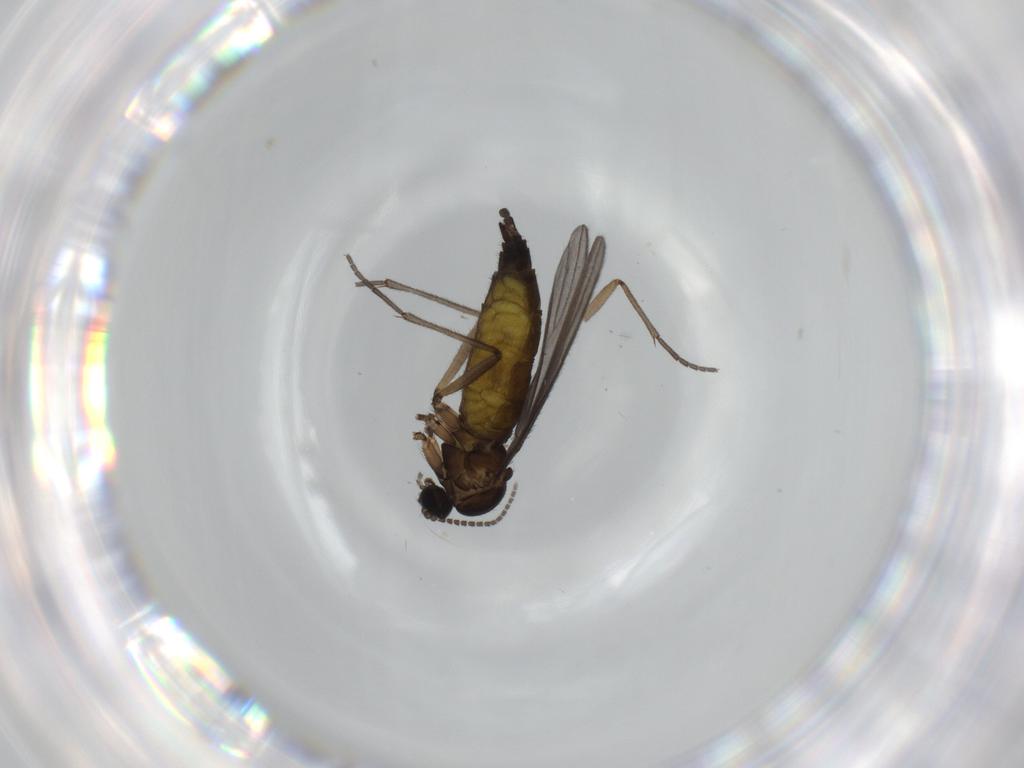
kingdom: Animalia
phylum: Arthropoda
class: Insecta
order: Diptera
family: Sciaridae
